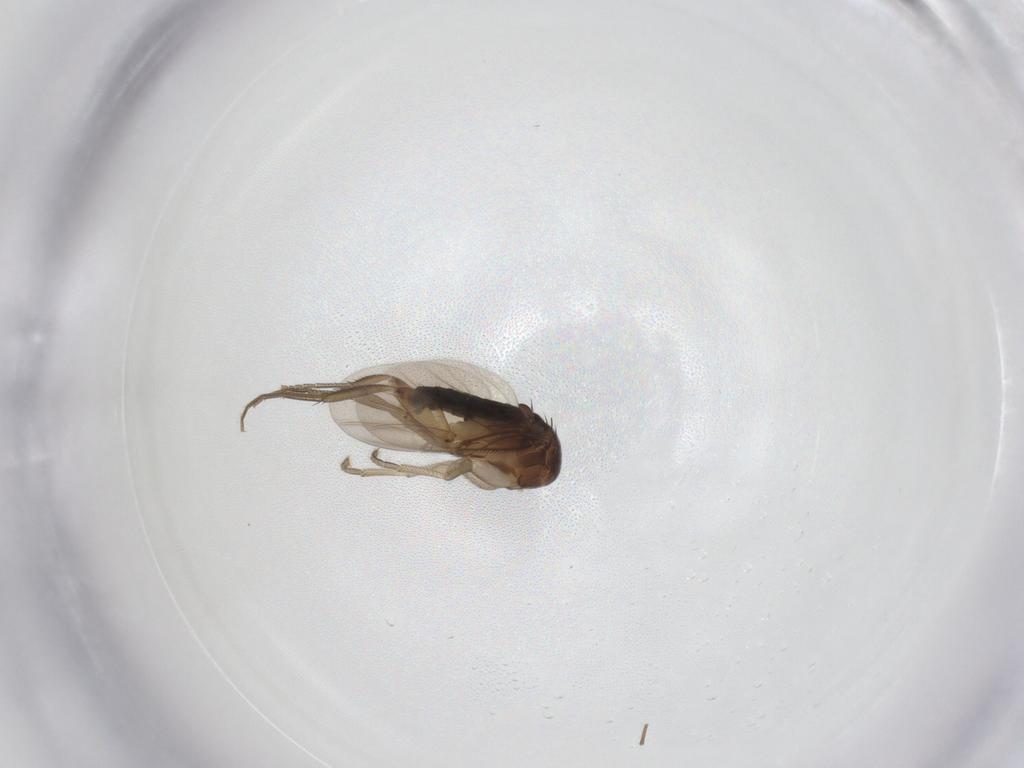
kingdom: Animalia
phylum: Arthropoda
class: Insecta
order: Diptera
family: Phoridae
